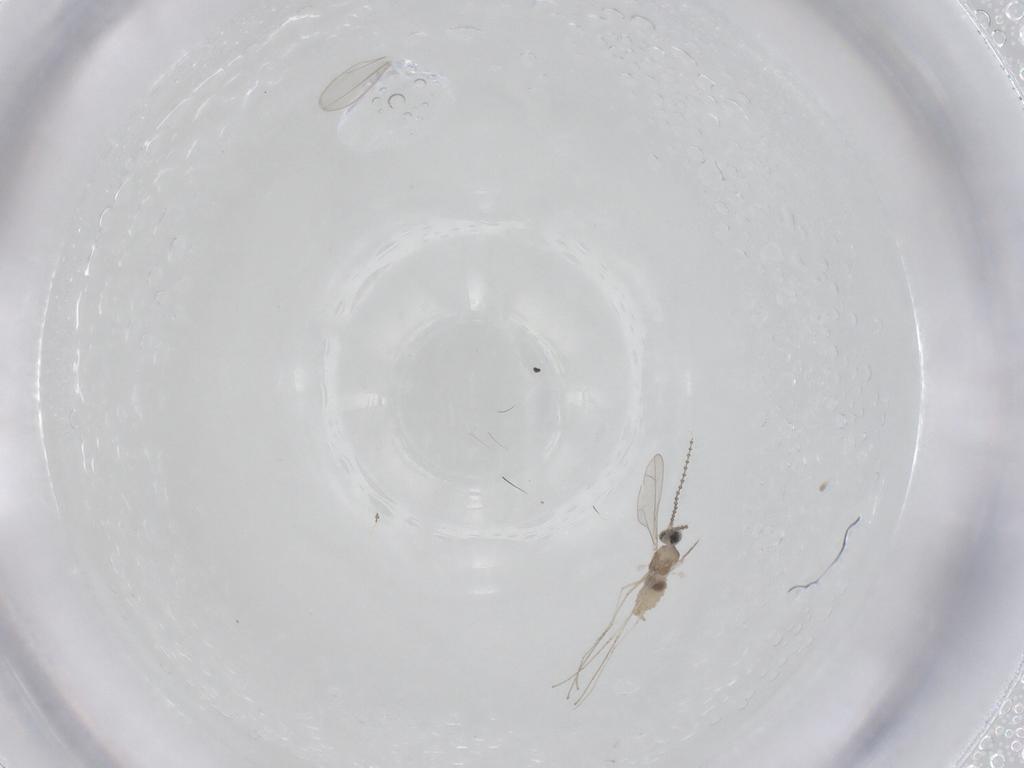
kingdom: Animalia
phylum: Arthropoda
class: Insecta
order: Diptera
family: Cecidomyiidae
